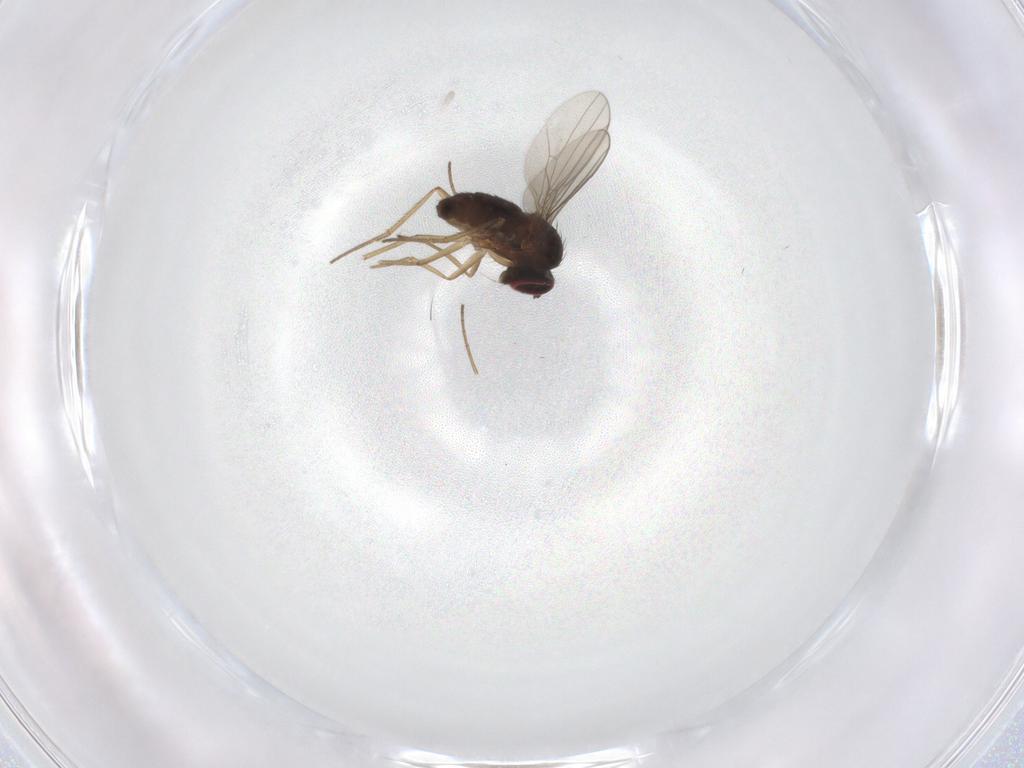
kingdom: Animalia
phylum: Arthropoda
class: Insecta
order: Diptera
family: Dolichopodidae
